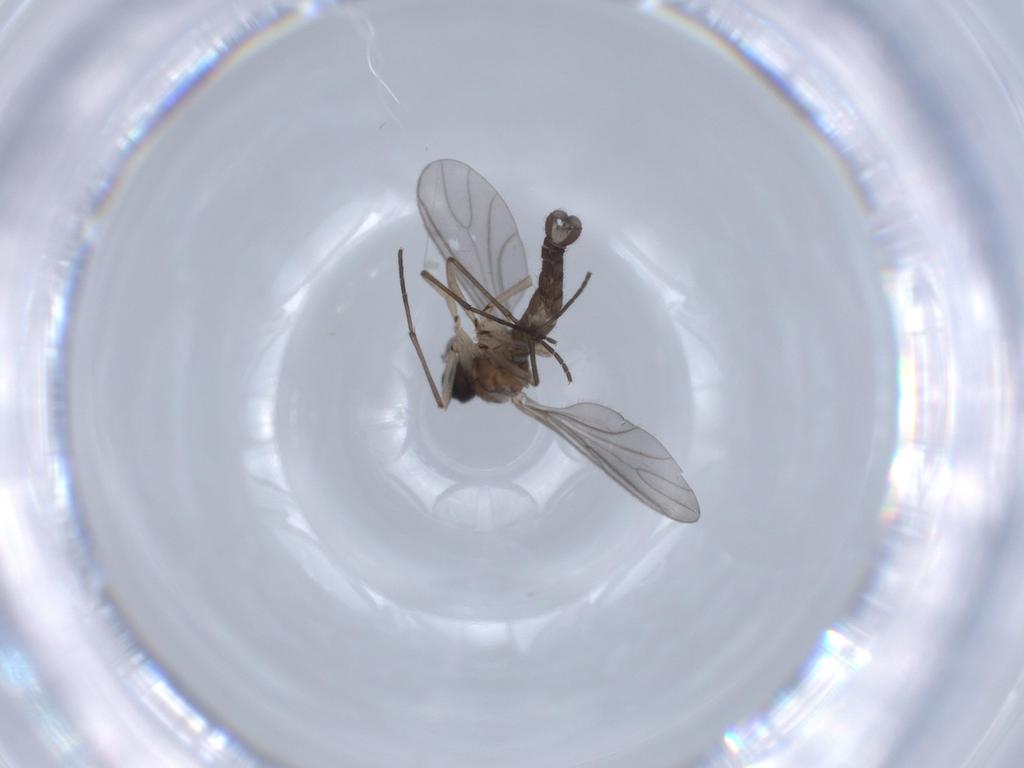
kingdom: Animalia
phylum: Arthropoda
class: Insecta
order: Diptera
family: Sciaridae
